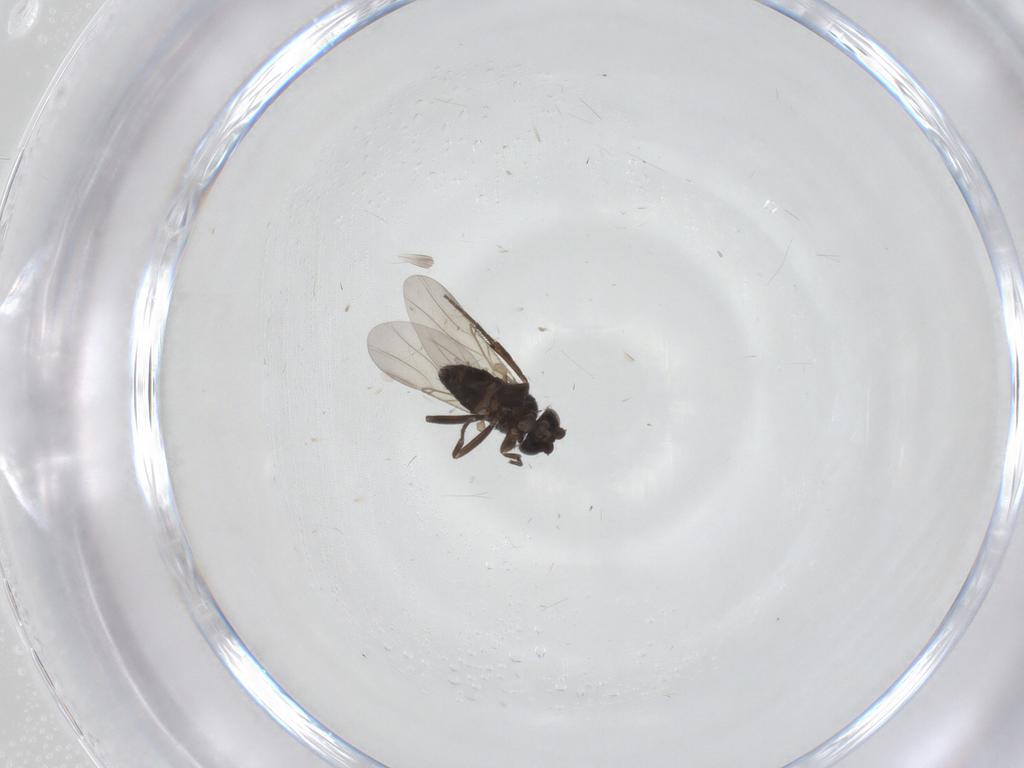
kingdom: Animalia
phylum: Arthropoda
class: Insecta
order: Diptera
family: Phoridae
